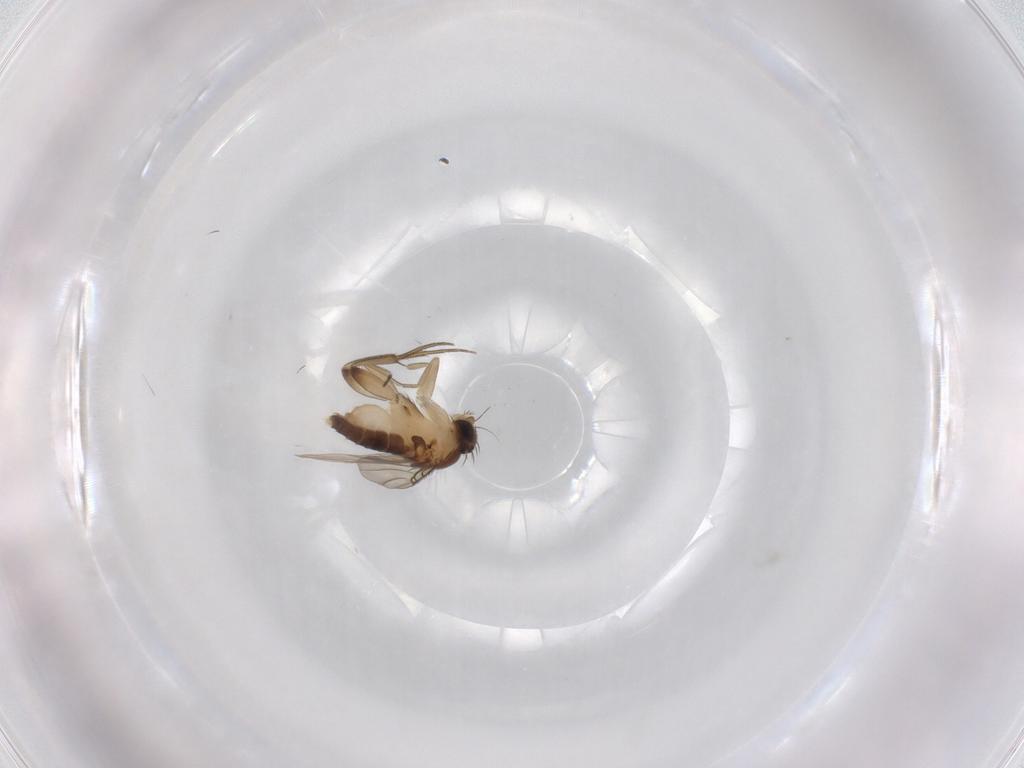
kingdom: Animalia
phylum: Arthropoda
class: Insecta
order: Diptera
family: Phoridae
